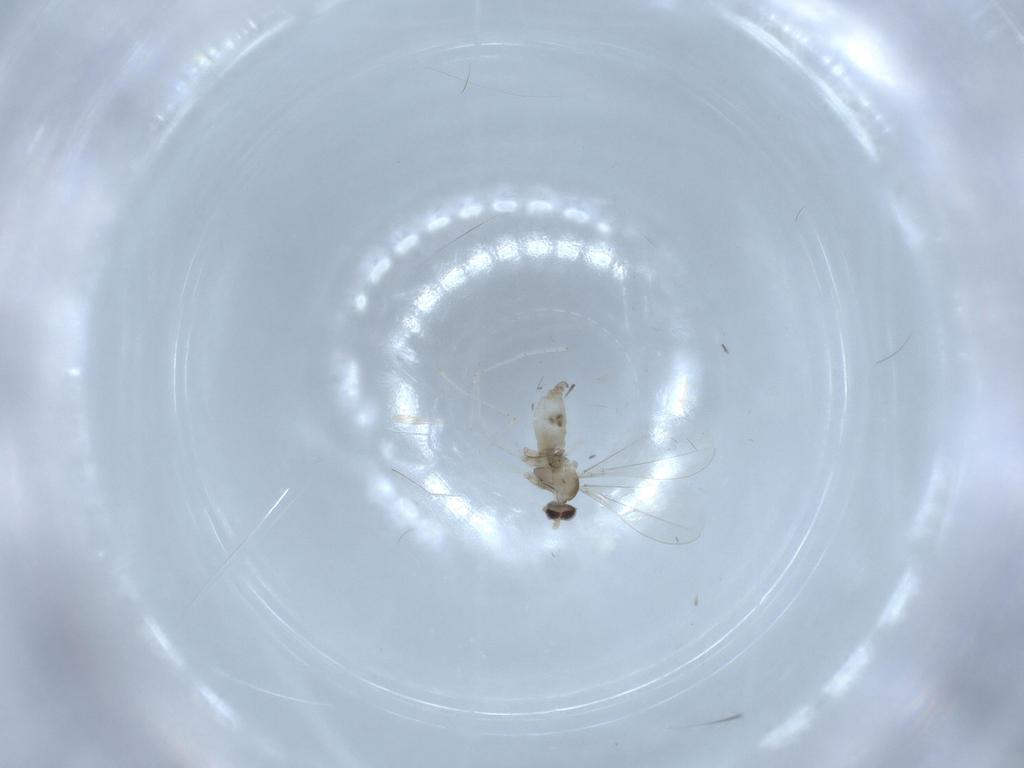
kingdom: Animalia
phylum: Arthropoda
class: Insecta
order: Diptera
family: Cecidomyiidae
